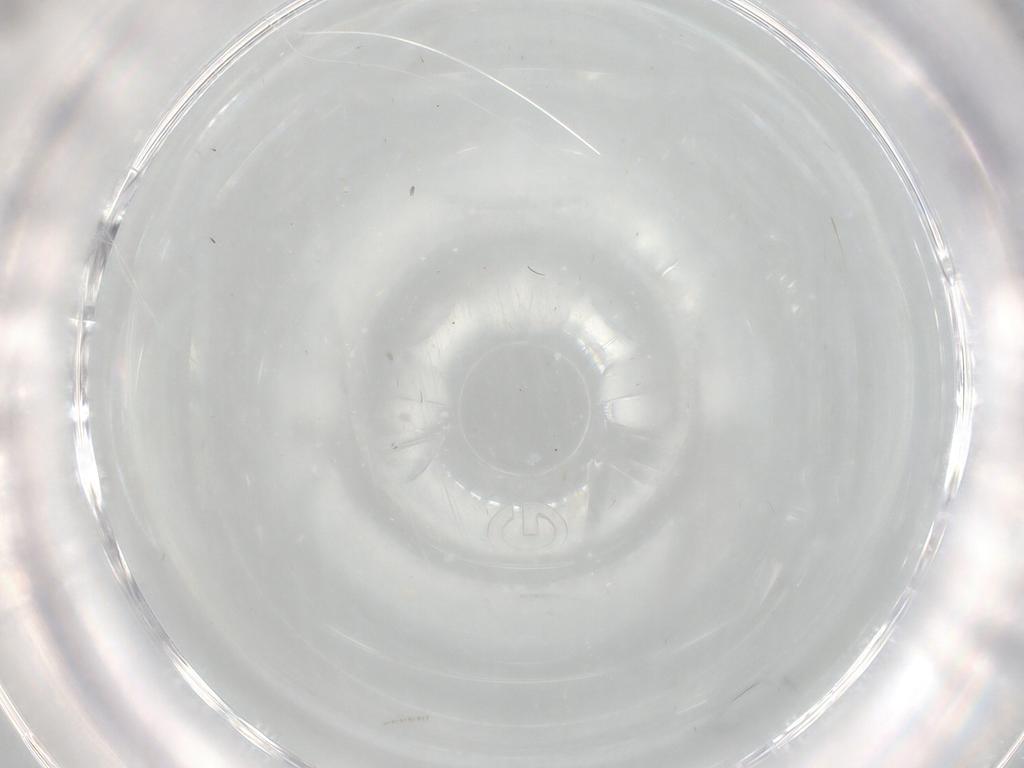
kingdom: Animalia
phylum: Arthropoda
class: Insecta
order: Diptera
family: Cecidomyiidae
